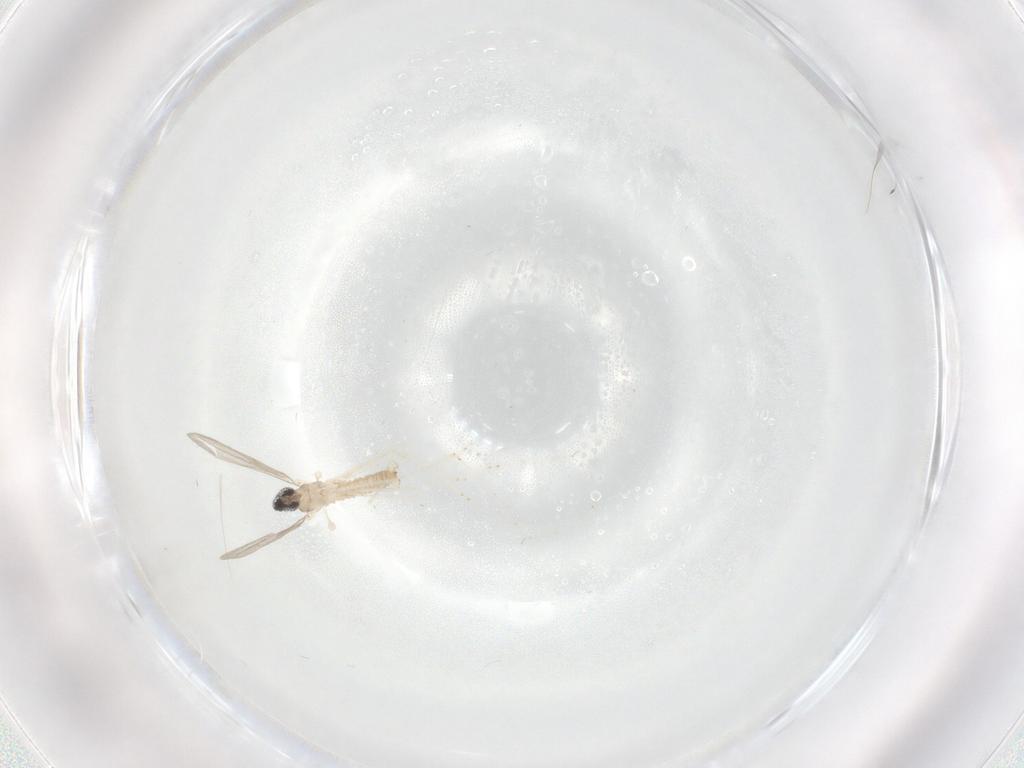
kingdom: Animalia
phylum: Arthropoda
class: Insecta
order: Diptera
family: Cecidomyiidae
